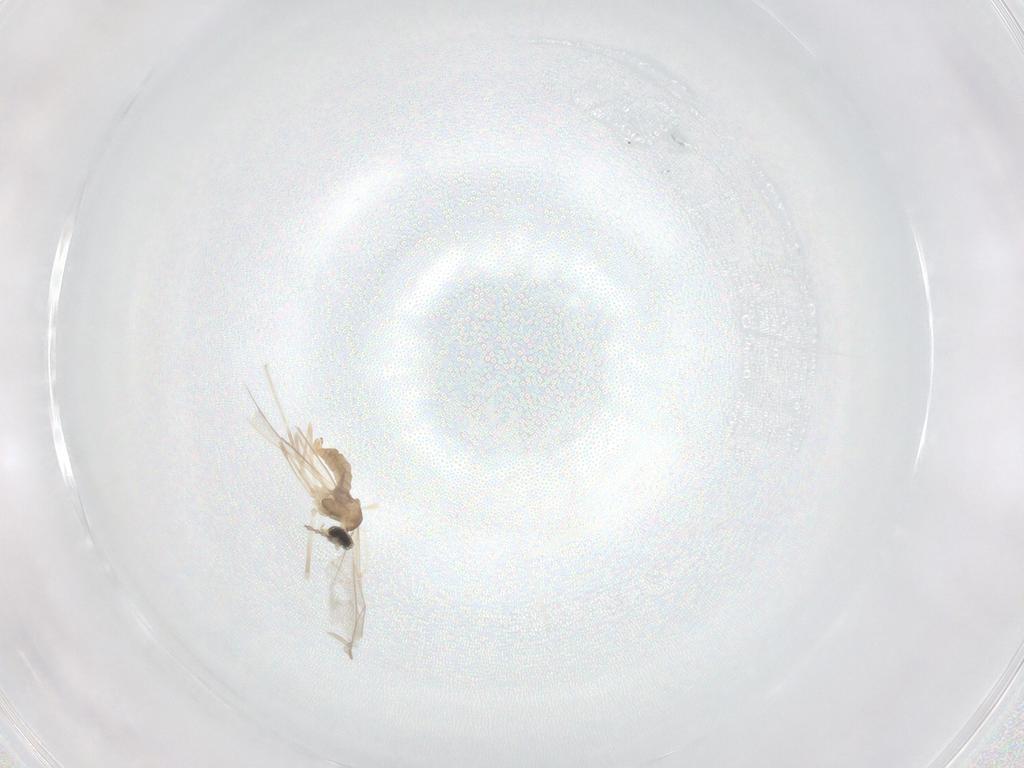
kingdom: Animalia
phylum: Arthropoda
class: Insecta
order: Diptera
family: Cecidomyiidae
